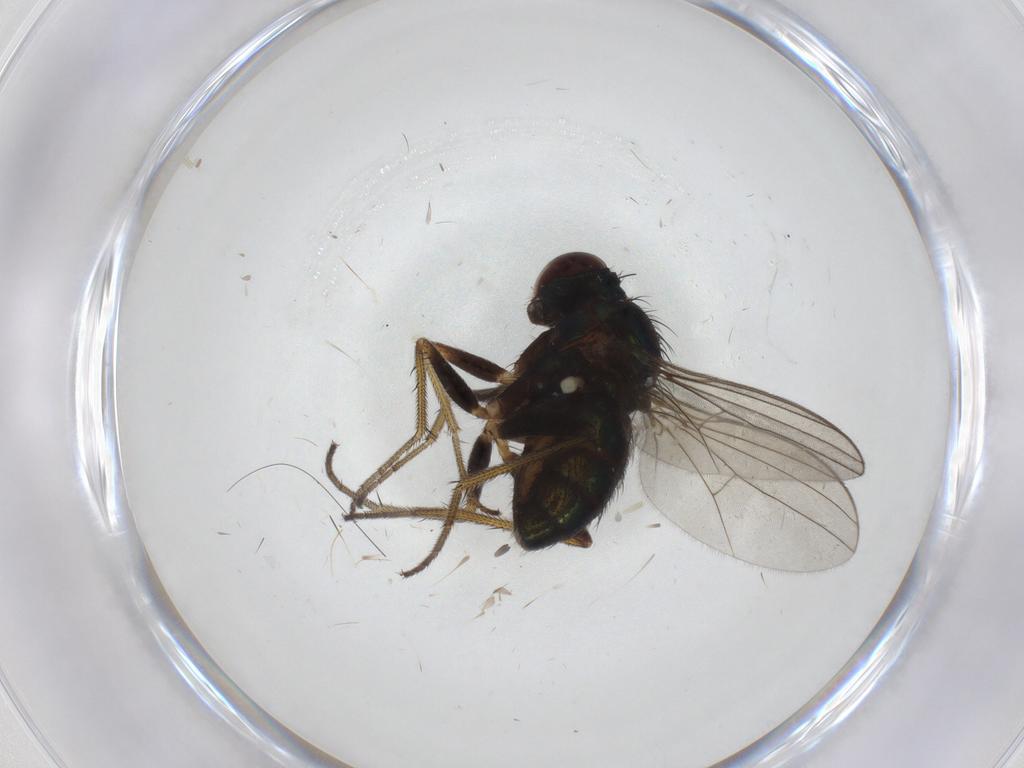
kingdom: Animalia
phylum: Arthropoda
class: Insecta
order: Diptera
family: Dolichopodidae
